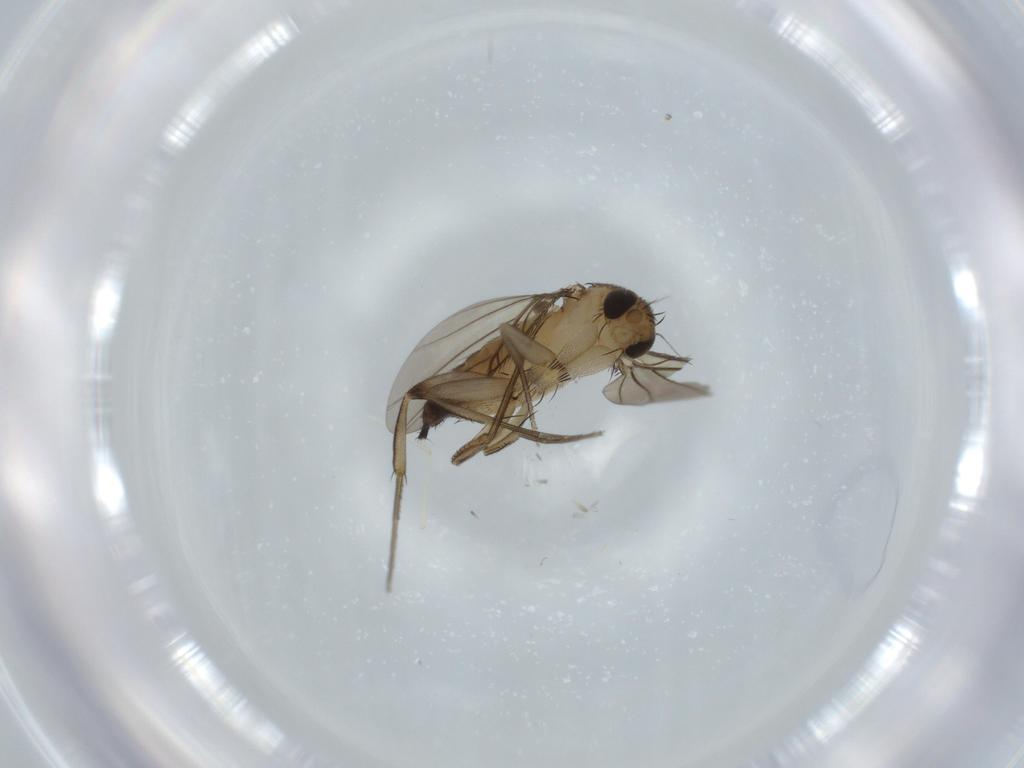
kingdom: Animalia
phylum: Arthropoda
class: Insecta
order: Diptera
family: Phoridae
